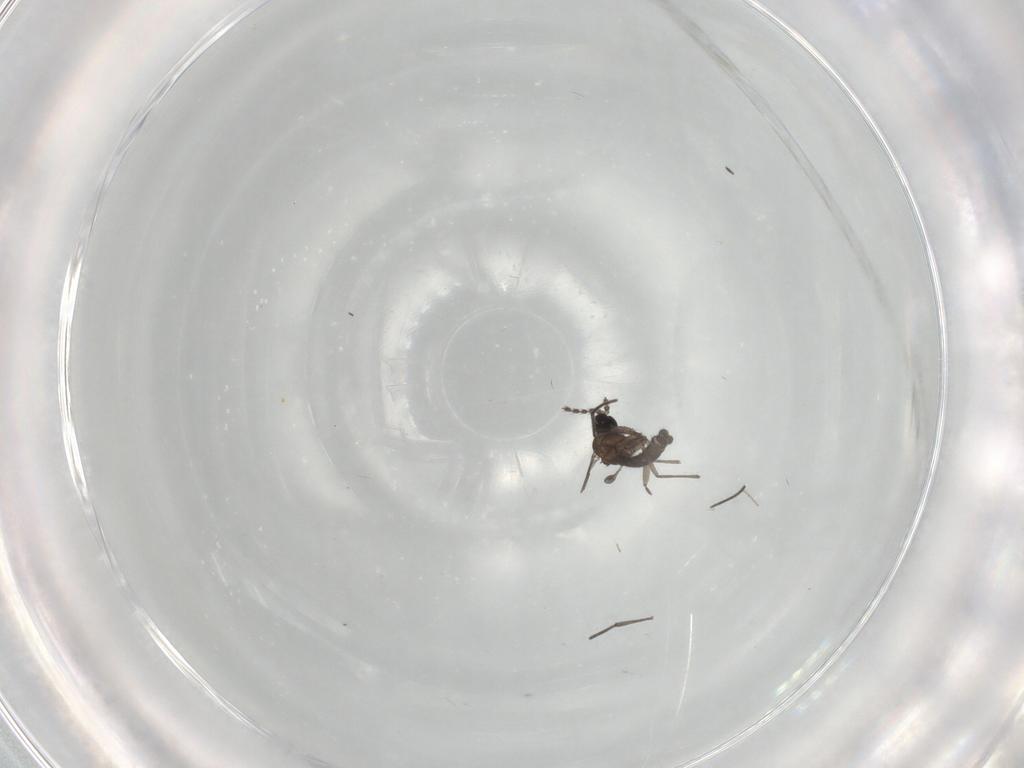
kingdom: Animalia
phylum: Arthropoda
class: Insecta
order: Diptera
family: Cecidomyiidae
